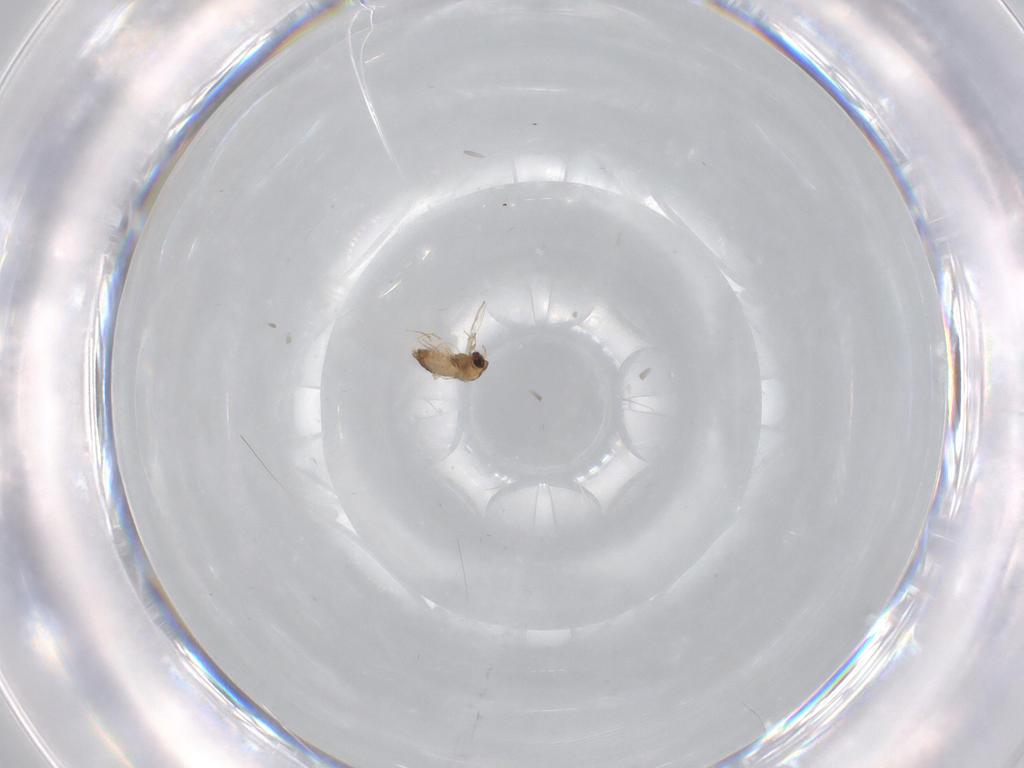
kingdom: Animalia
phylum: Arthropoda
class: Insecta
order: Diptera
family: Chironomidae
